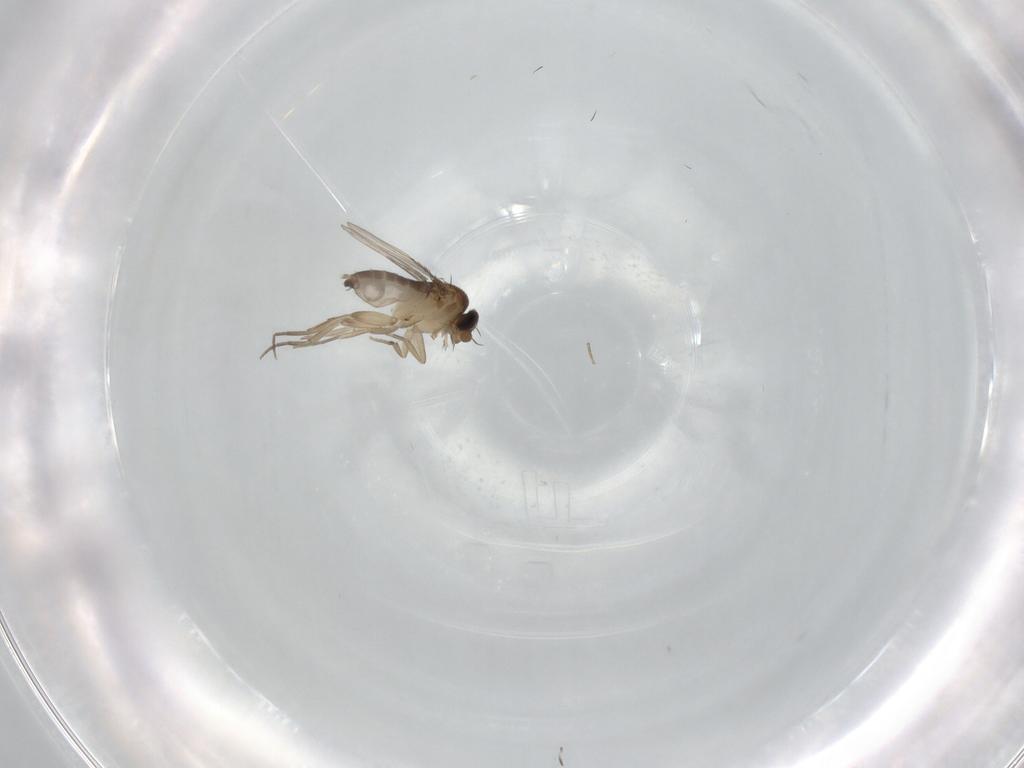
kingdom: Animalia
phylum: Arthropoda
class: Insecta
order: Diptera
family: Phoridae
